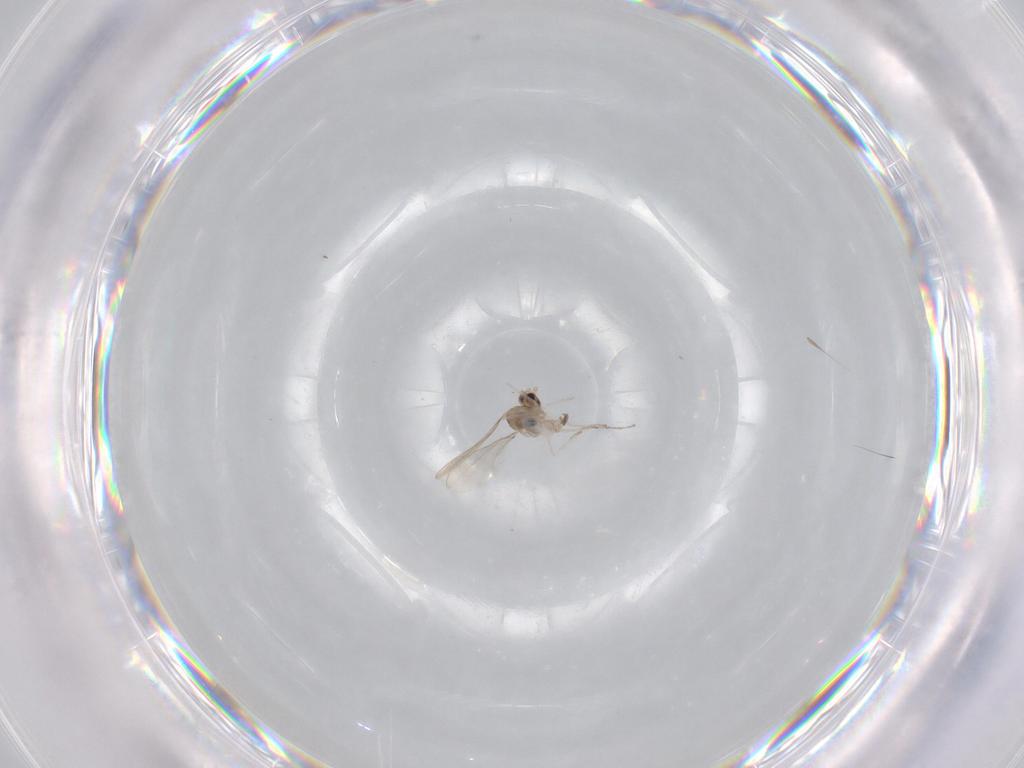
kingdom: Animalia
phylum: Arthropoda
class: Insecta
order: Diptera
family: Cecidomyiidae
